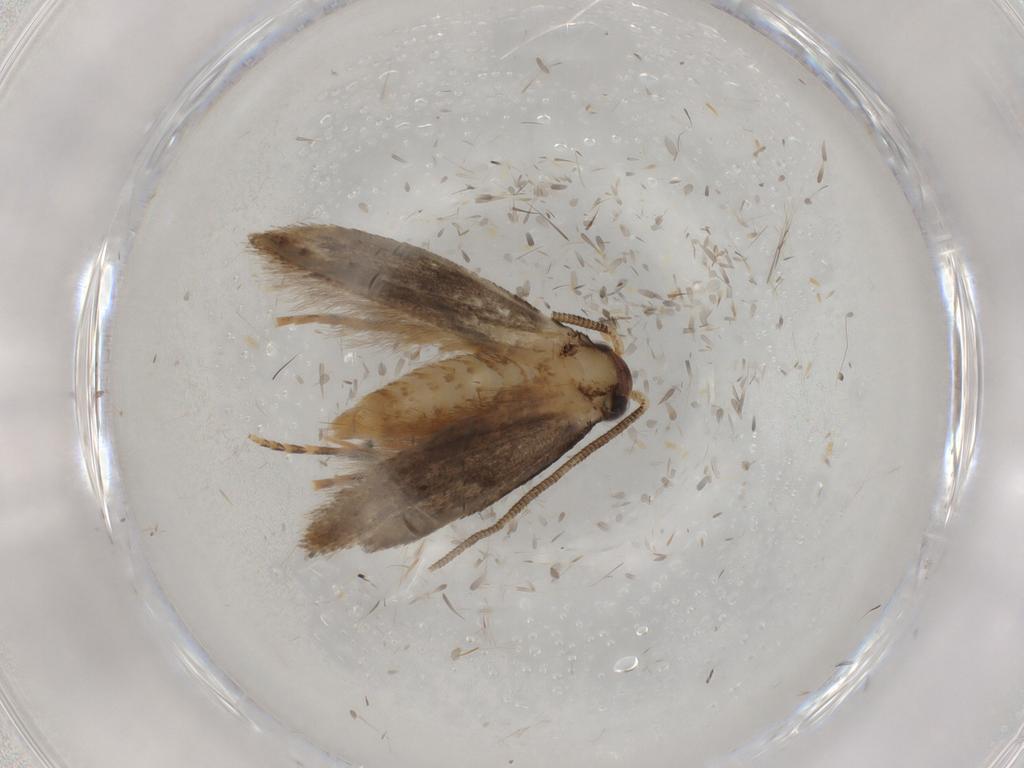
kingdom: Animalia
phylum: Arthropoda
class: Insecta
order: Lepidoptera
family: Tineidae
